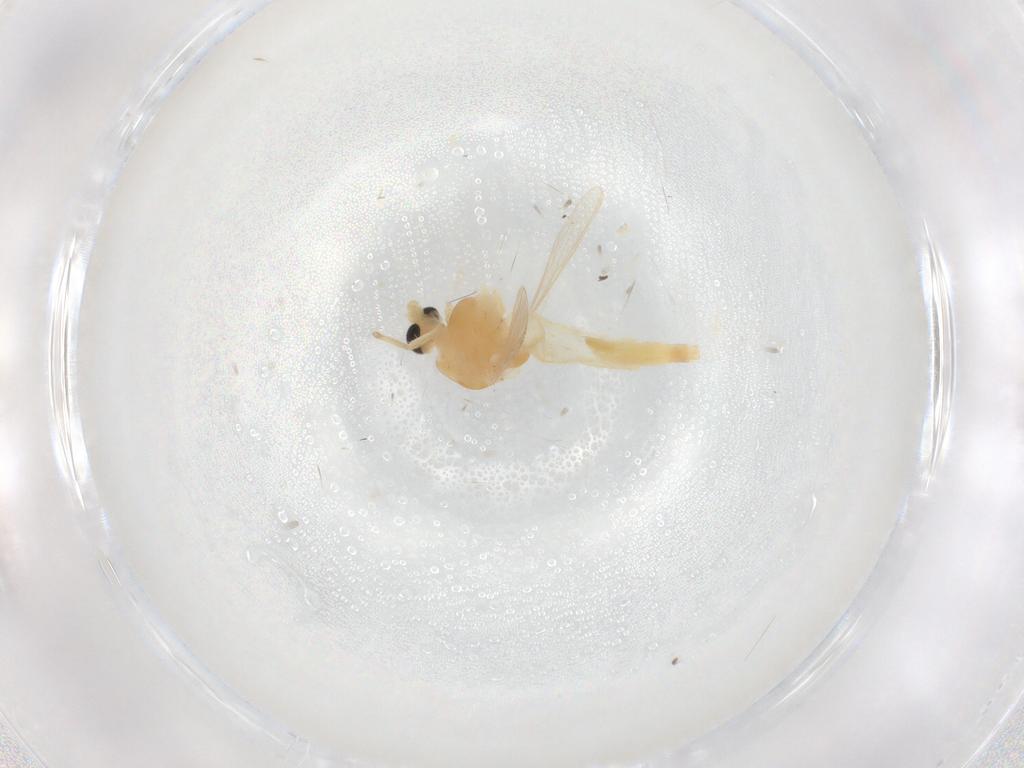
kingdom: Animalia
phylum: Arthropoda
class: Insecta
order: Diptera
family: Chironomidae
